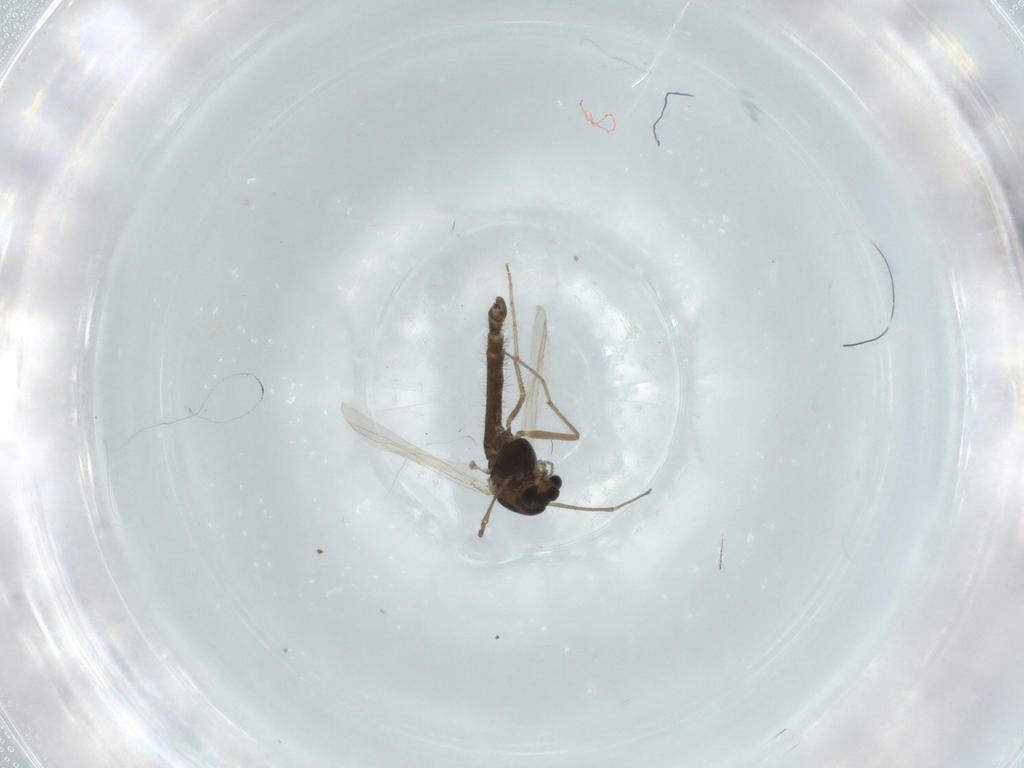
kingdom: Animalia
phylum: Arthropoda
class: Insecta
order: Diptera
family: Chironomidae
